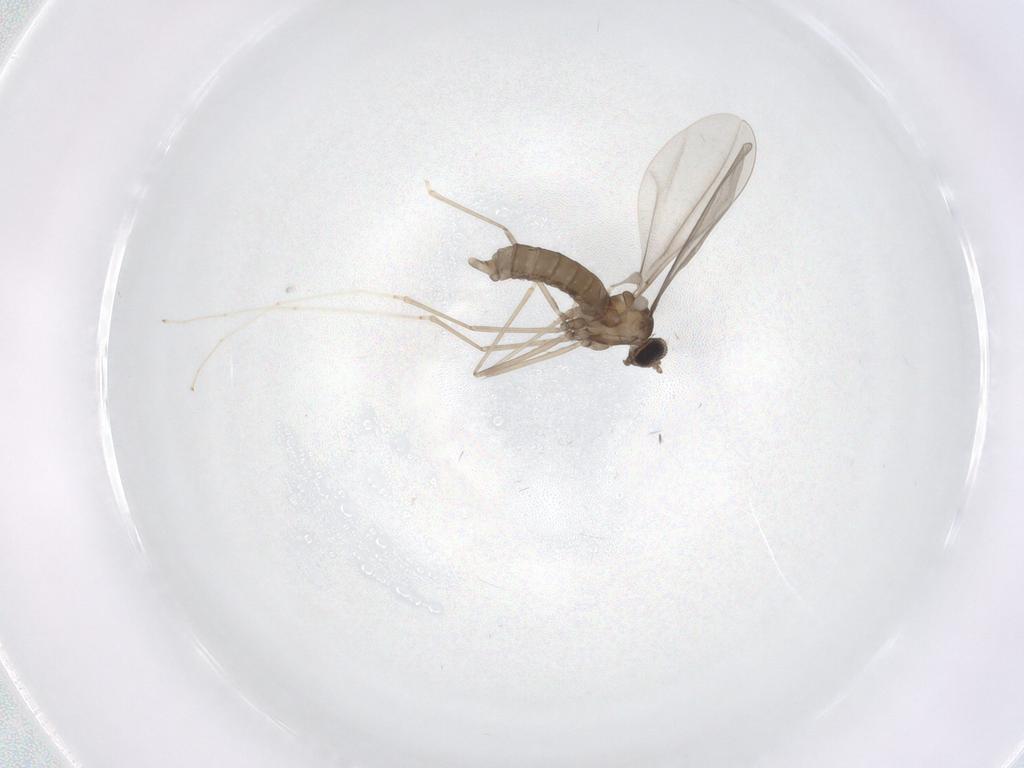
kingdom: Animalia
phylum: Arthropoda
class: Insecta
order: Diptera
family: Cecidomyiidae
